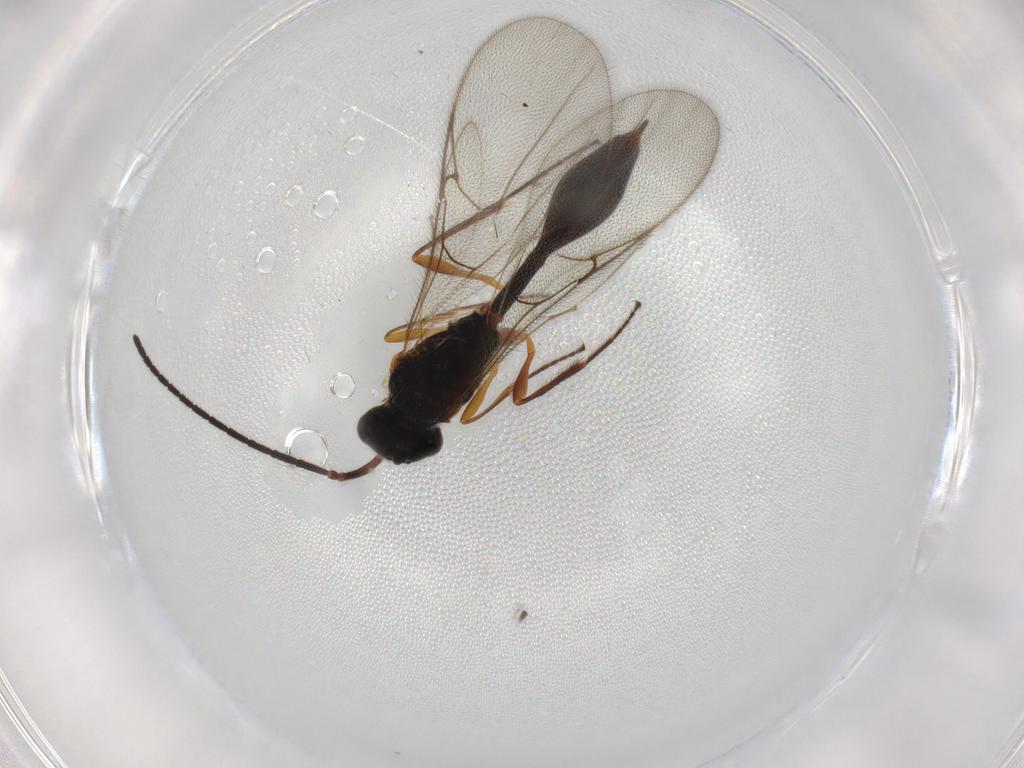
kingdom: Animalia
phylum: Arthropoda
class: Insecta
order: Hymenoptera
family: Diapriidae
